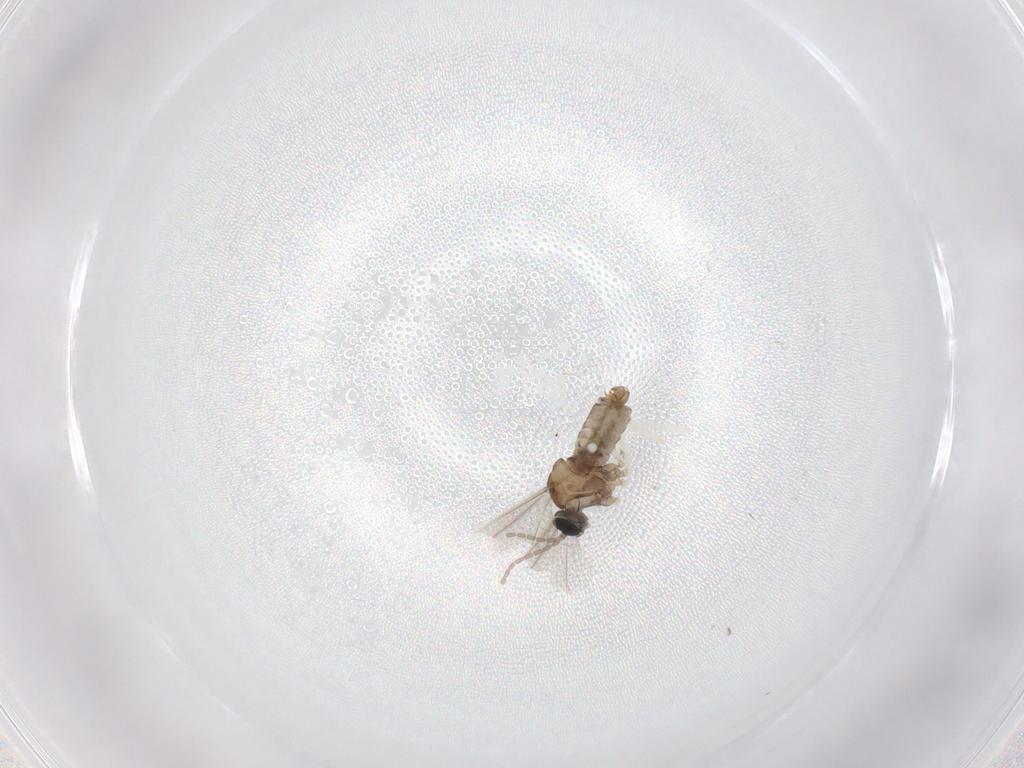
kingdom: Animalia
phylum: Arthropoda
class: Insecta
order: Diptera
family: Cecidomyiidae
